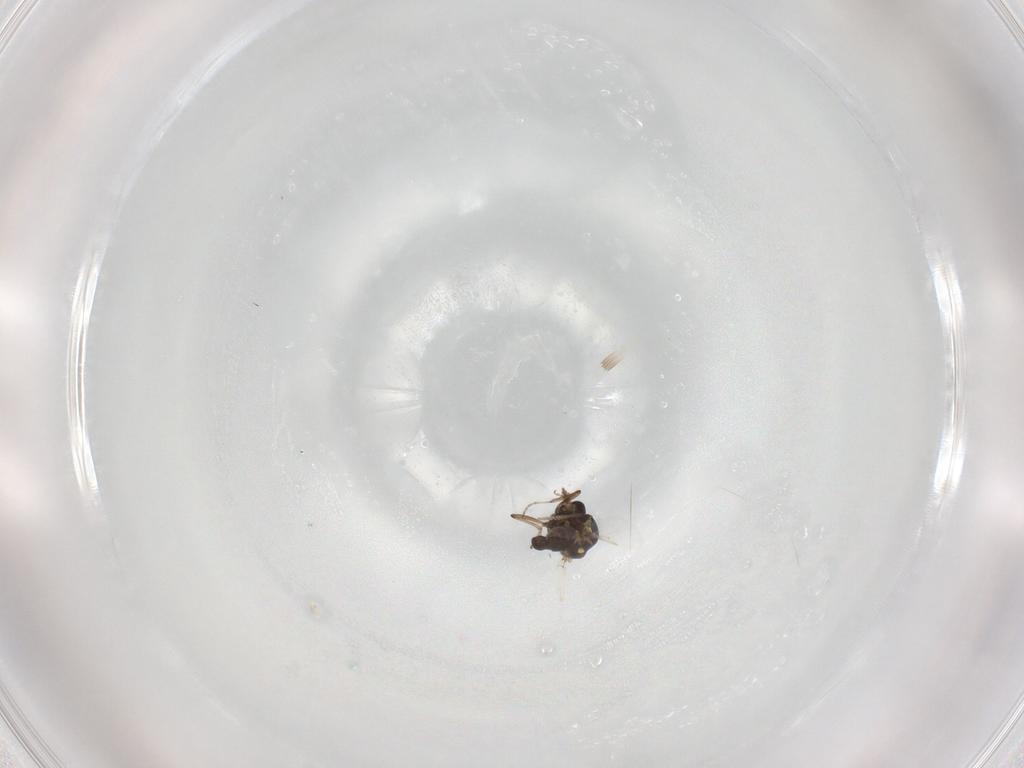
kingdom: Animalia
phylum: Arthropoda
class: Insecta
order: Diptera
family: Ceratopogonidae
